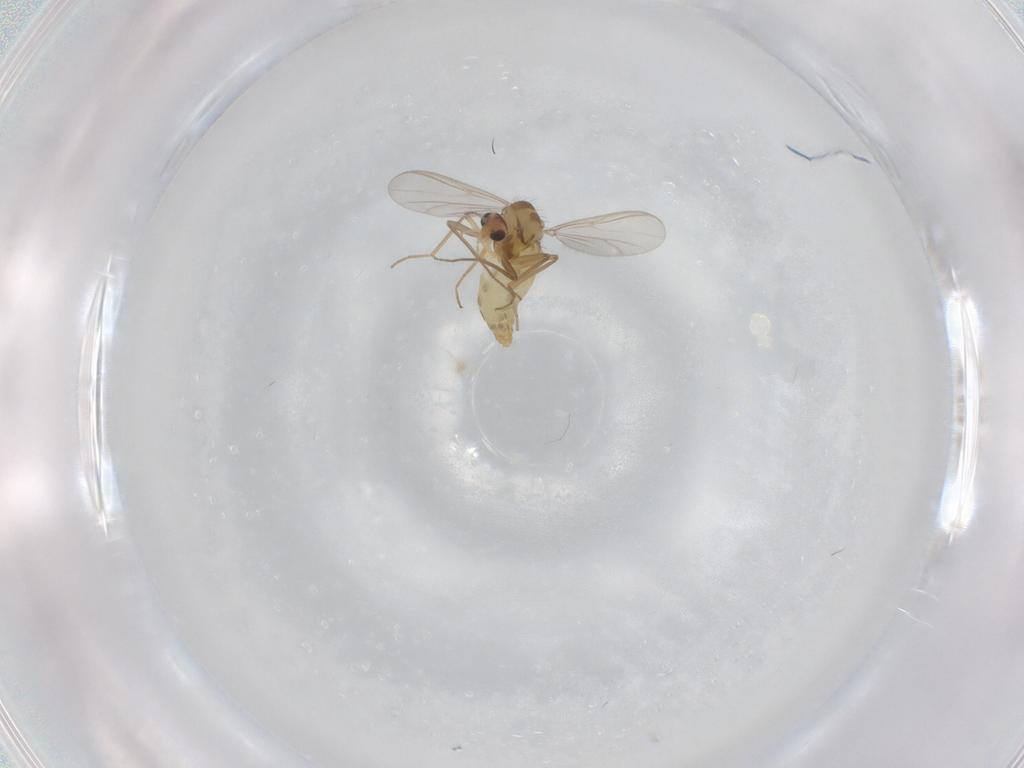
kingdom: Animalia
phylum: Arthropoda
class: Insecta
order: Diptera
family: Chironomidae
